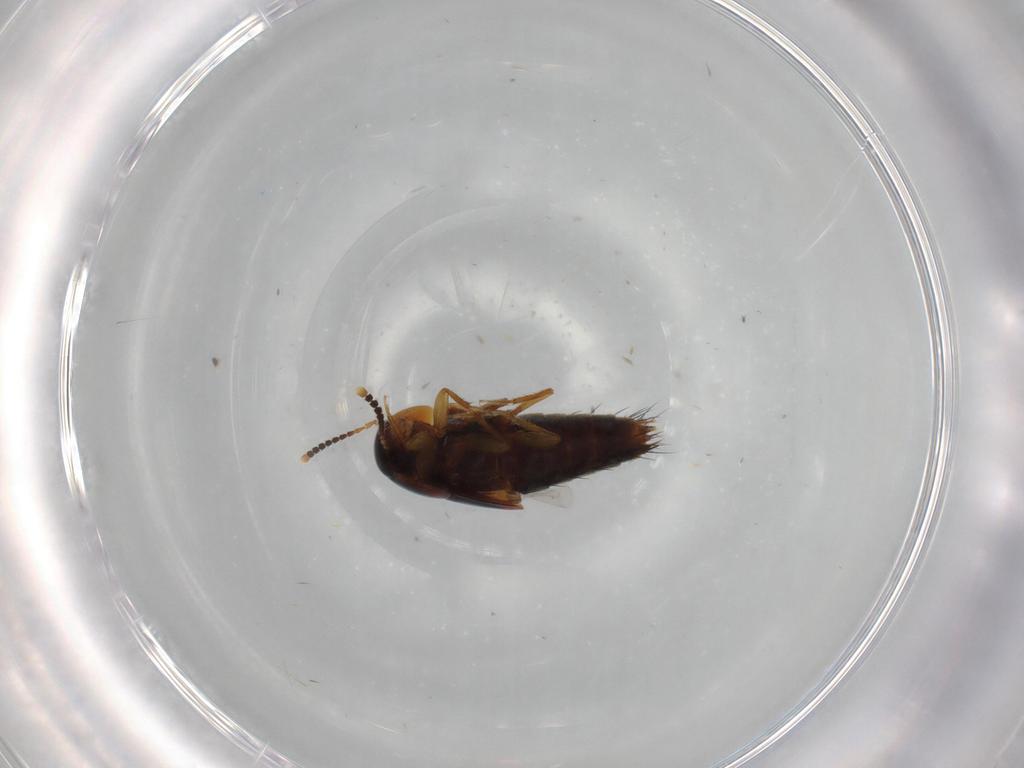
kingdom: Animalia
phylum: Arthropoda
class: Insecta
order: Coleoptera
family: Staphylinidae
